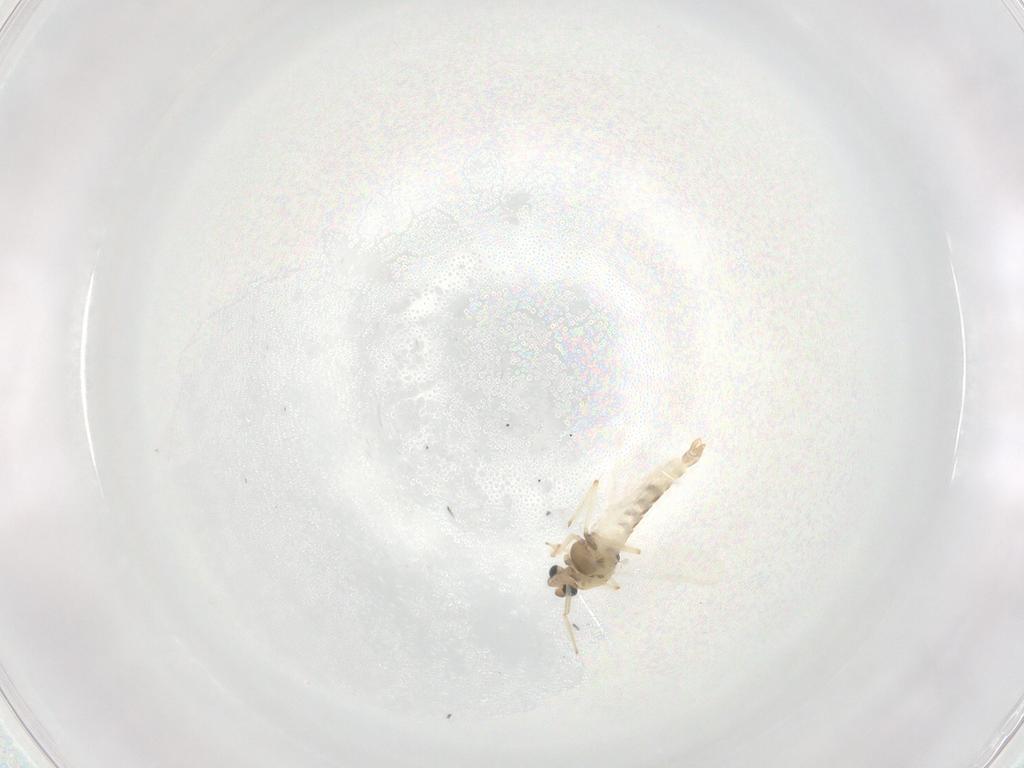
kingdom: Animalia
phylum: Arthropoda
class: Insecta
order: Diptera
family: Chironomidae
